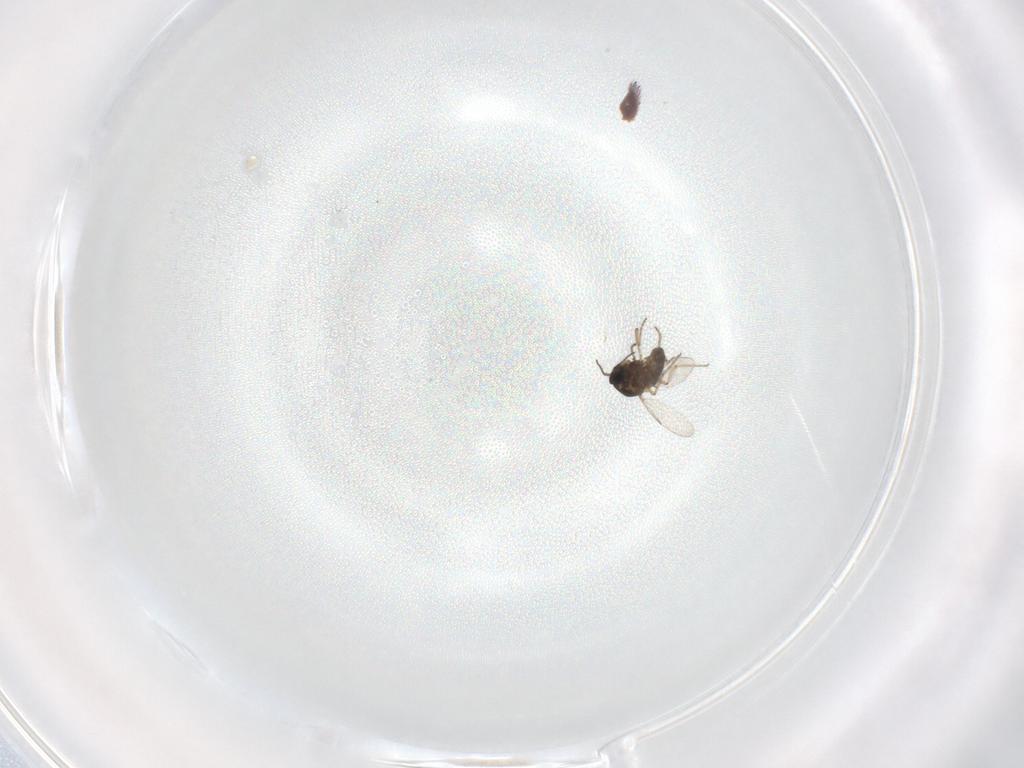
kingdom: Animalia
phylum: Arthropoda
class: Insecta
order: Diptera
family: Ceratopogonidae
